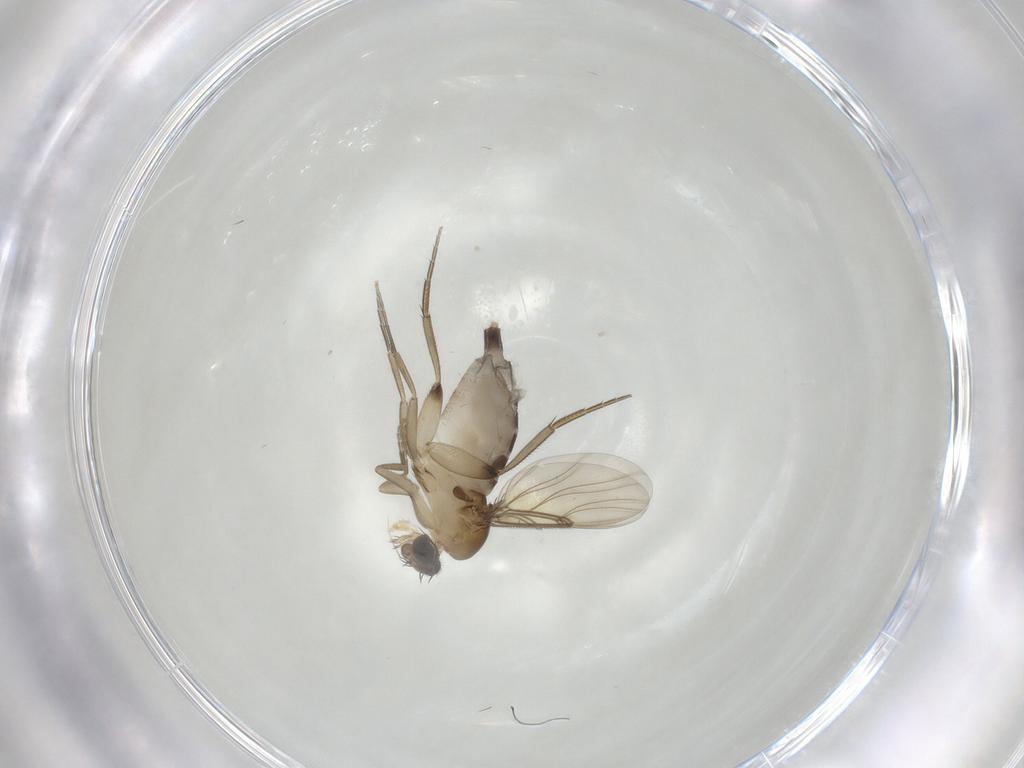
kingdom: Animalia
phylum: Arthropoda
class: Insecta
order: Diptera
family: Phoridae
